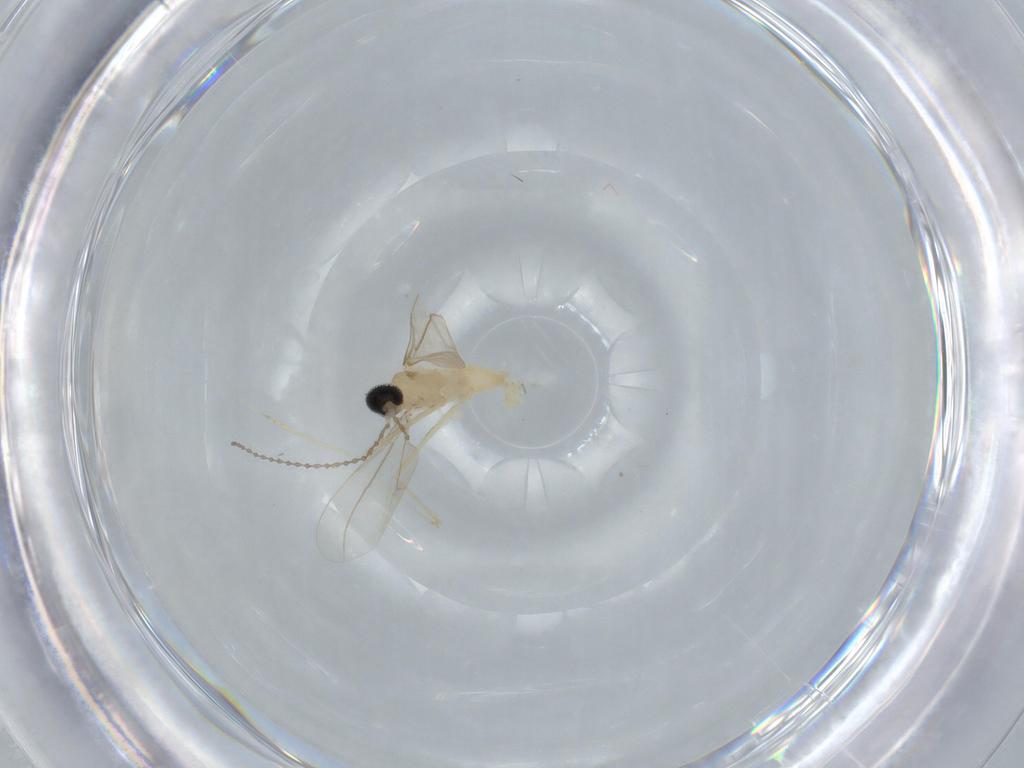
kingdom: Animalia
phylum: Arthropoda
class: Insecta
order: Diptera
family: Cecidomyiidae
